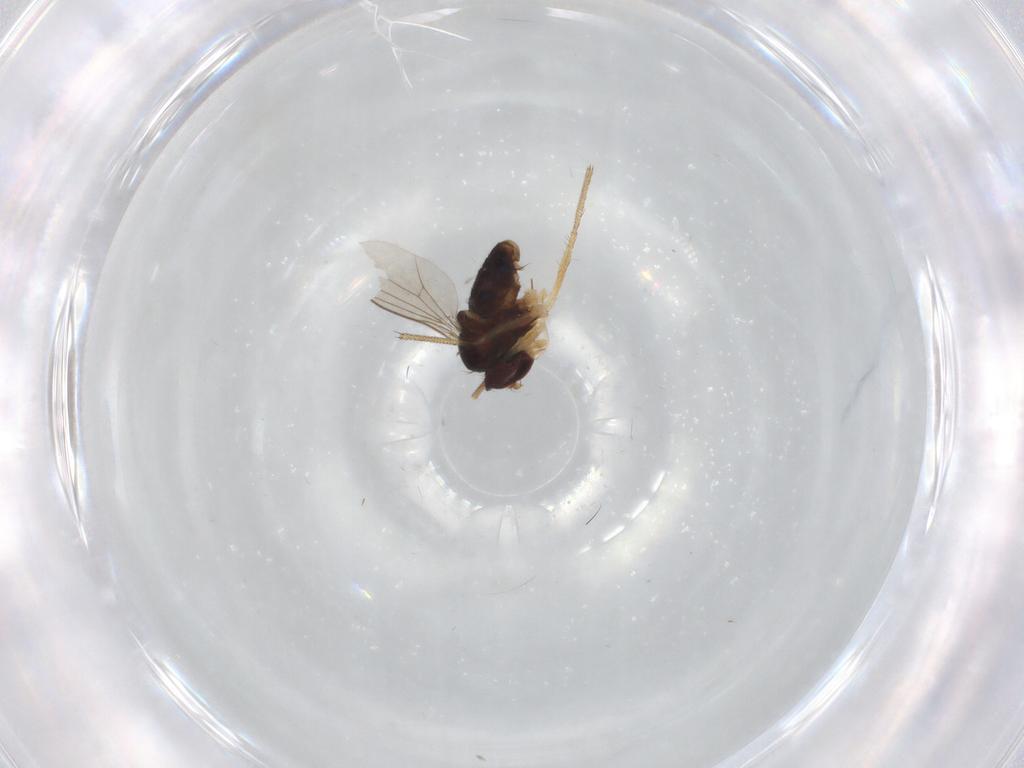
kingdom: Animalia
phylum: Arthropoda
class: Insecta
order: Diptera
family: Dolichopodidae
